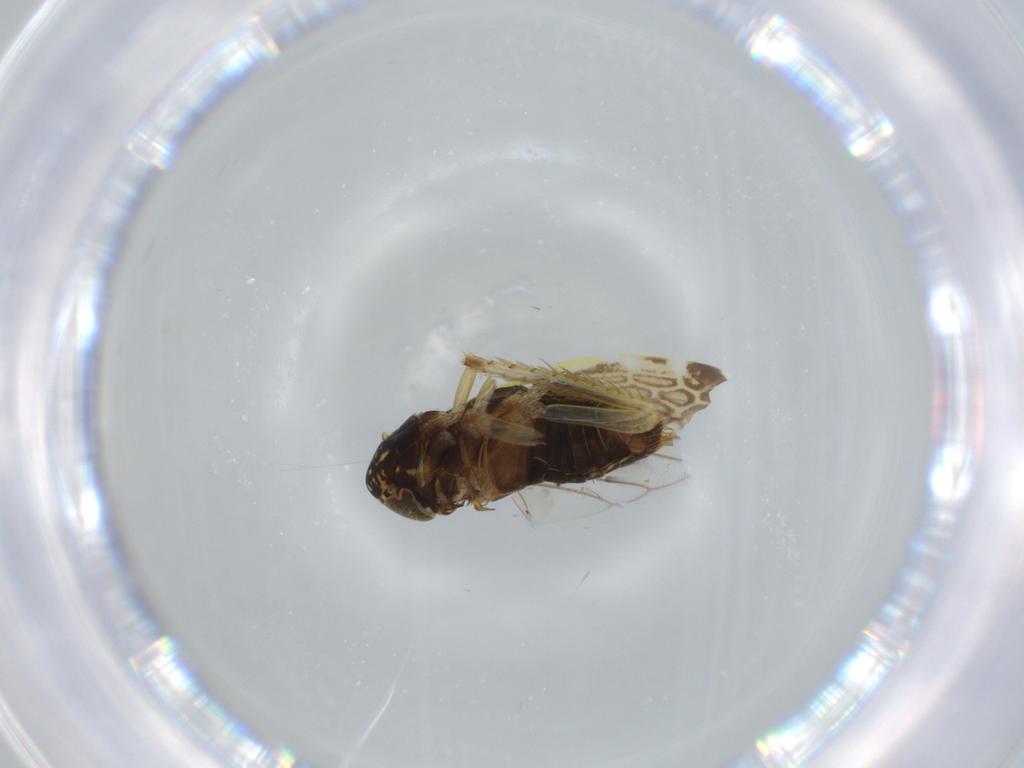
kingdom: Animalia
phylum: Arthropoda
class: Insecta
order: Hemiptera
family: Cicadellidae
